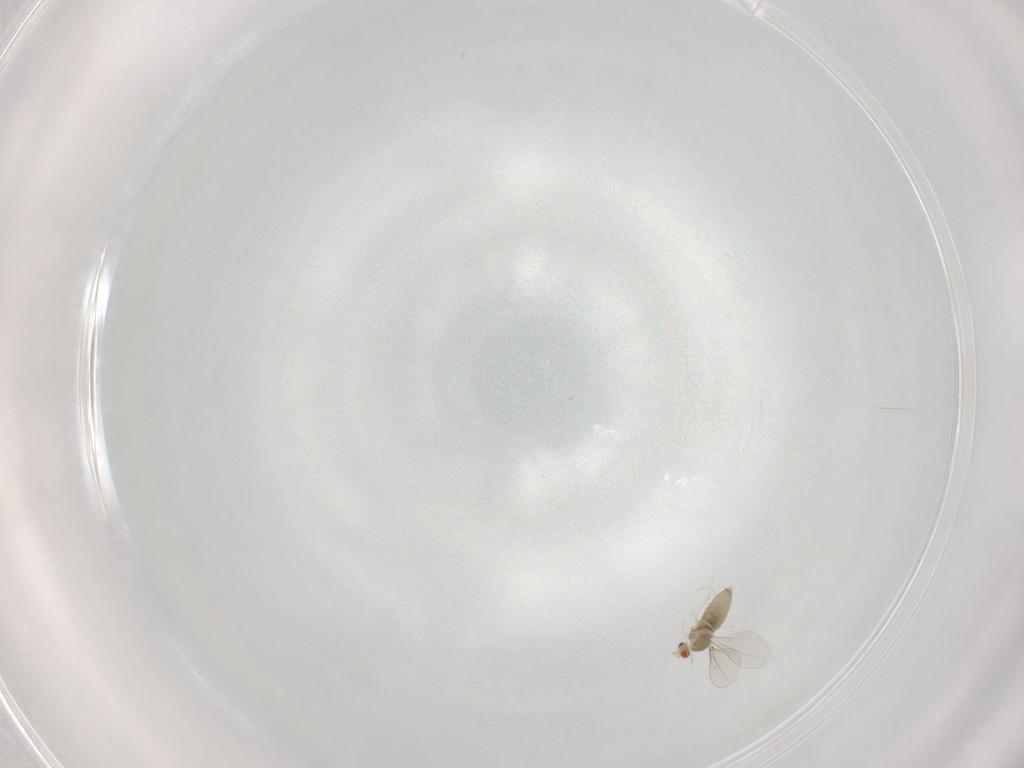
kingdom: Animalia
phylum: Arthropoda
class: Insecta
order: Diptera
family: Cecidomyiidae
